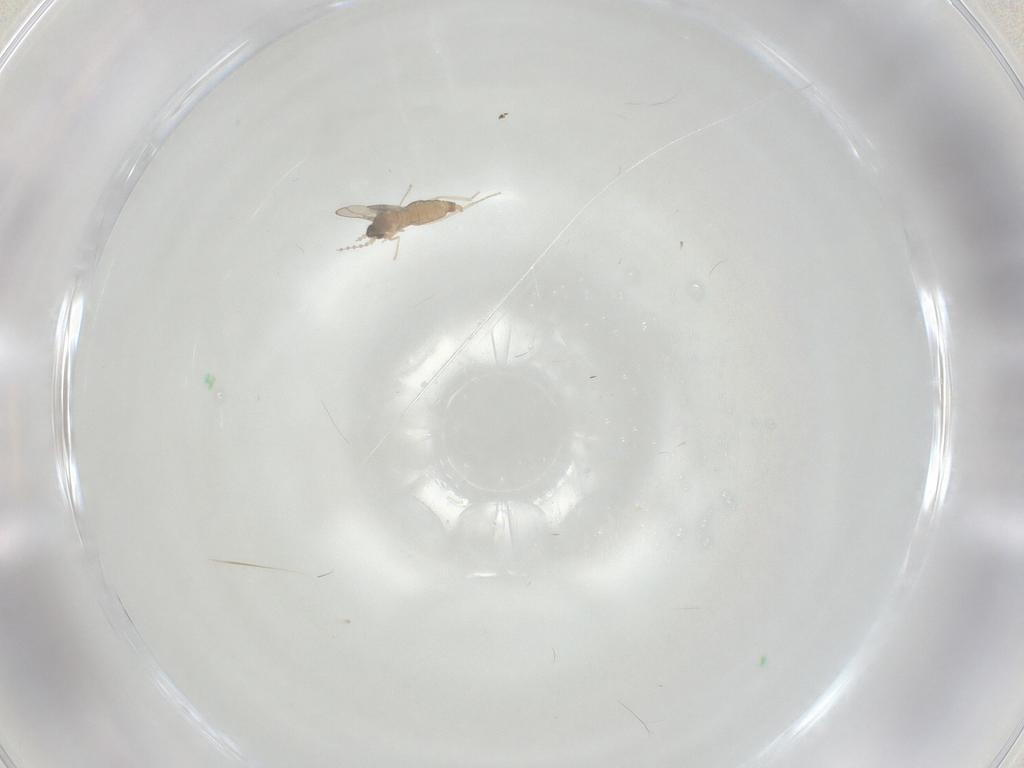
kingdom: Animalia
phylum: Arthropoda
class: Insecta
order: Diptera
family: Cecidomyiidae
